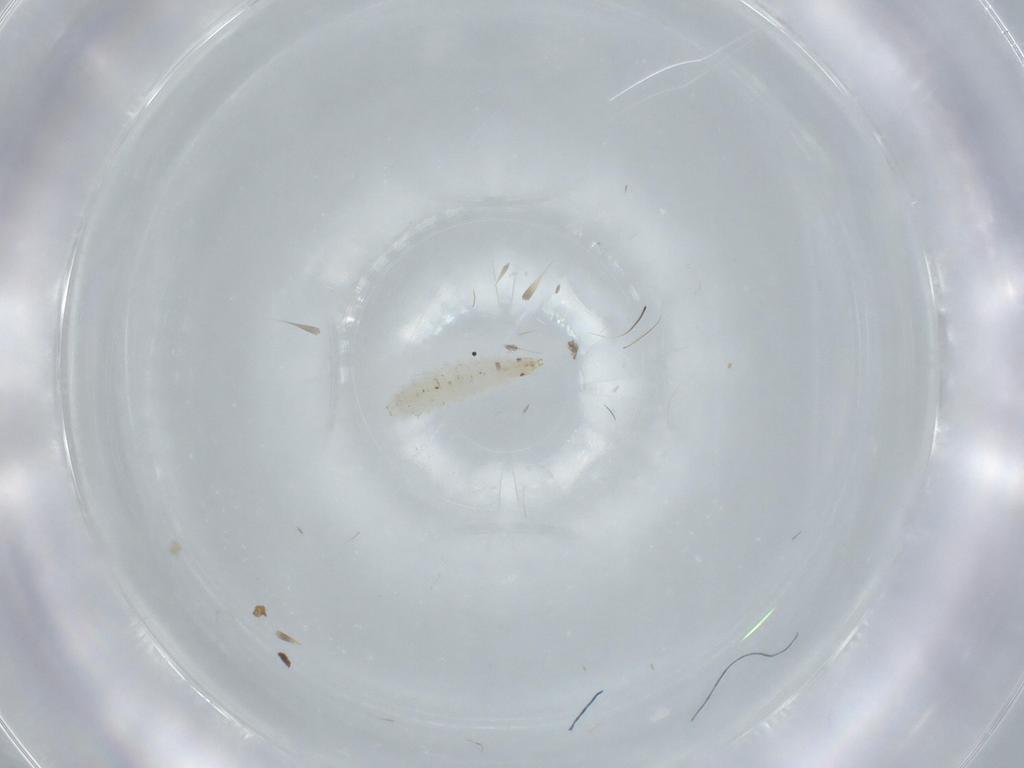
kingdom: Animalia
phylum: Arthropoda
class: Insecta
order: Diptera
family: Stratiomyidae
